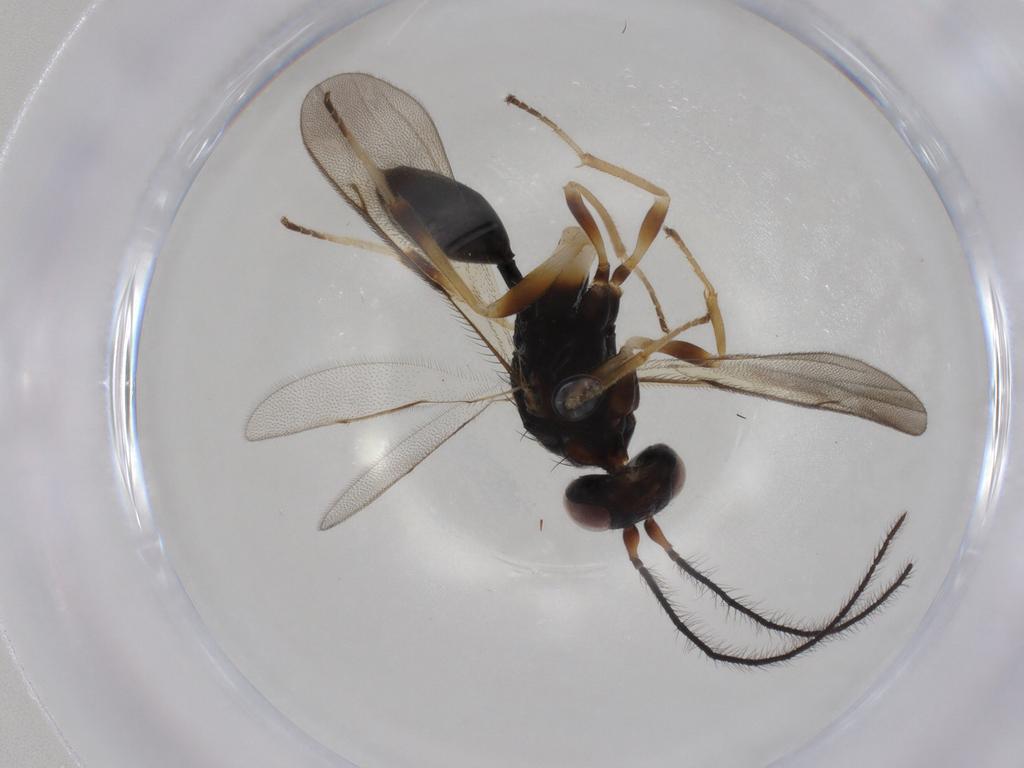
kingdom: Animalia
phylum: Arthropoda
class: Insecta
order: Hymenoptera
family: Diparidae
